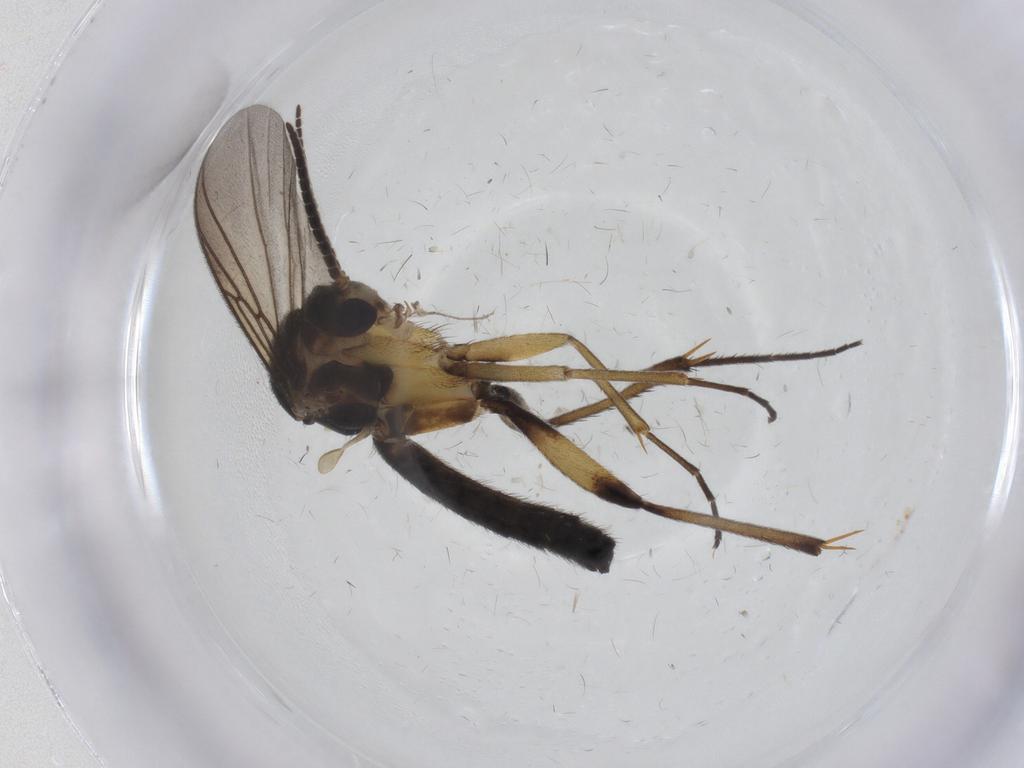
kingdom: Animalia
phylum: Arthropoda
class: Insecta
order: Diptera
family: Mycetophilidae
